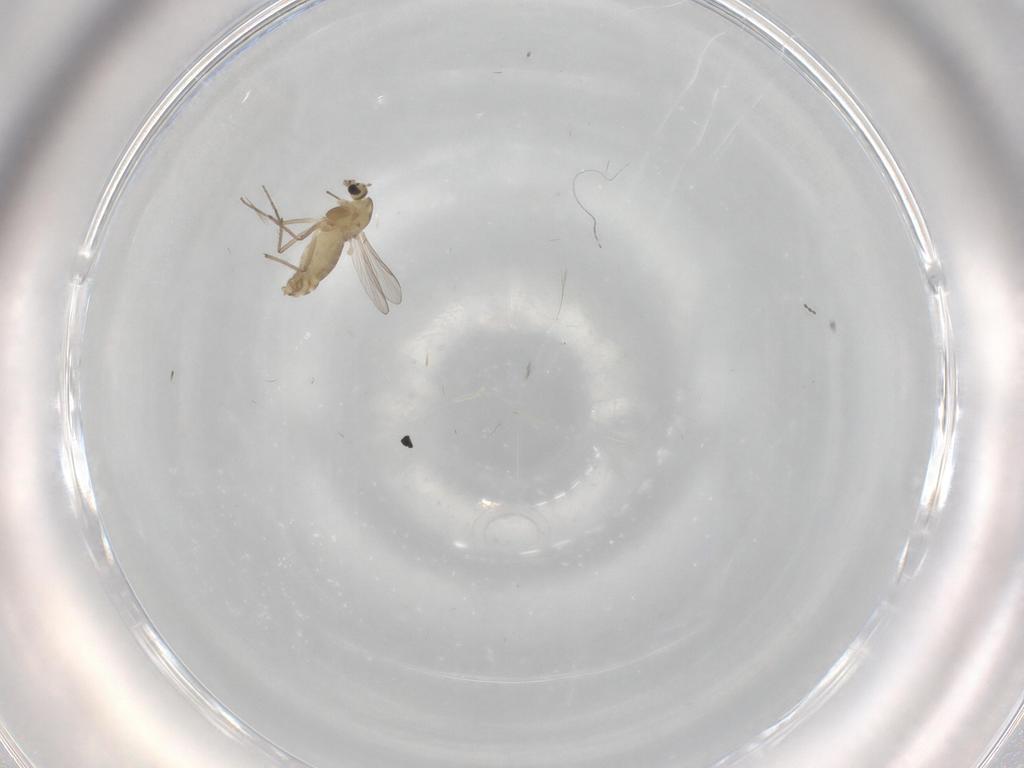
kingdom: Animalia
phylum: Arthropoda
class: Insecta
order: Diptera
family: Chironomidae
